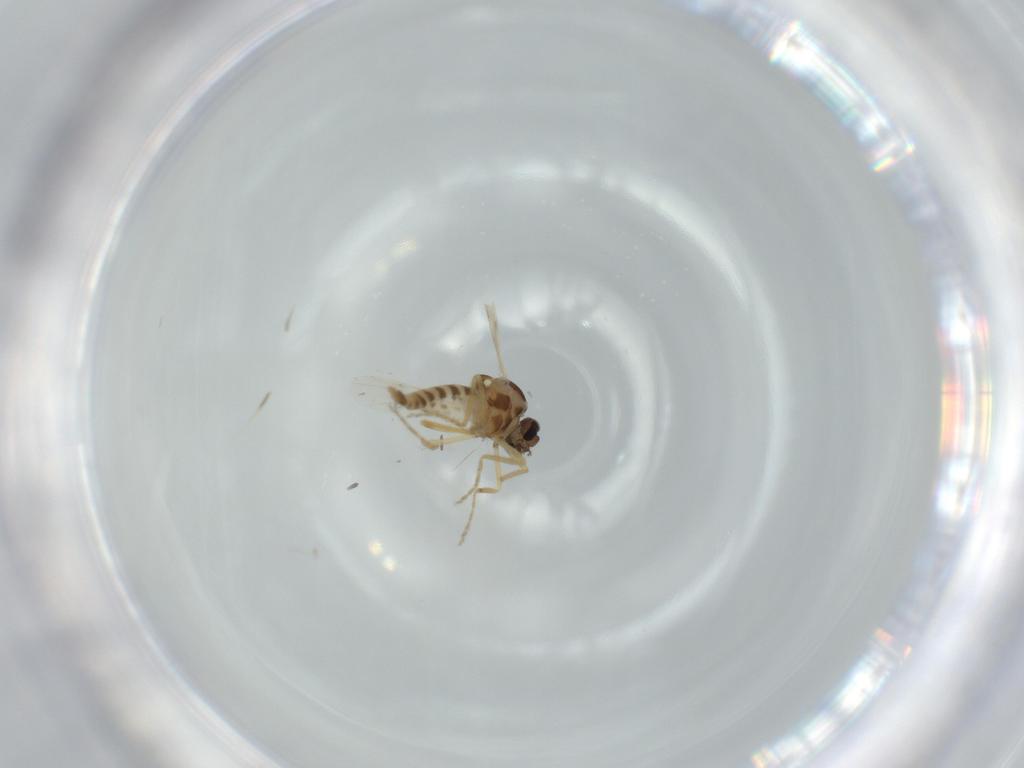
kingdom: Animalia
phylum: Arthropoda
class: Insecta
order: Diptera
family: Ceratopogonidae
